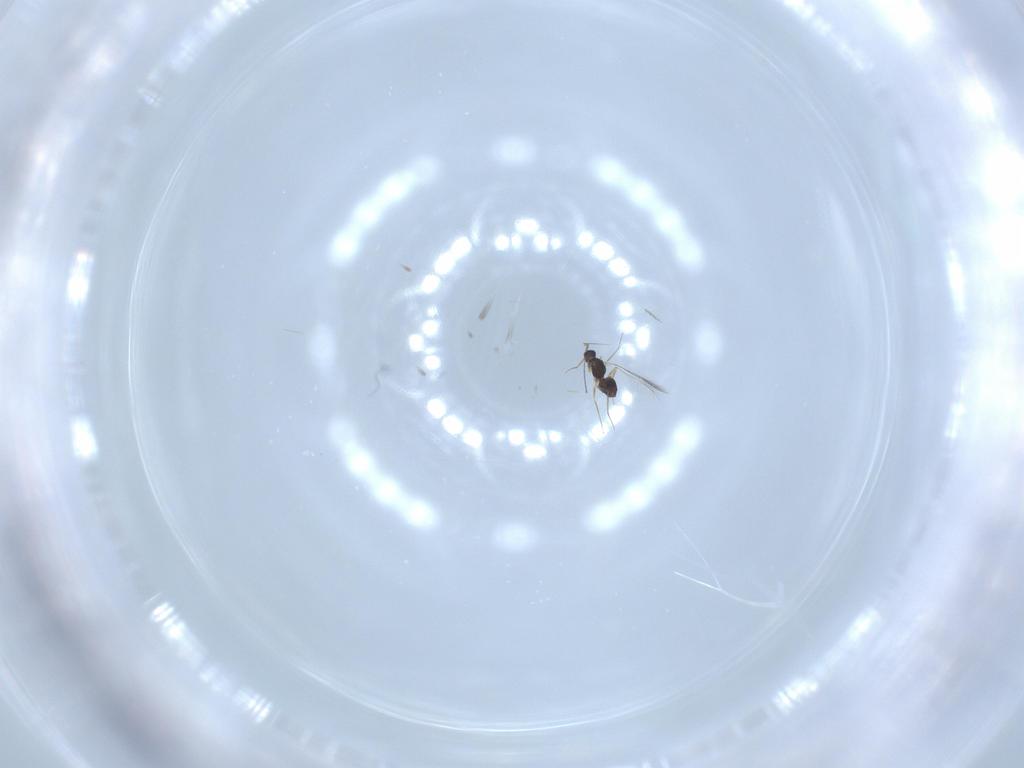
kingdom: Animalia
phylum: Arthropoda
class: Insecta
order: Hymenoptera
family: Mymaridae
